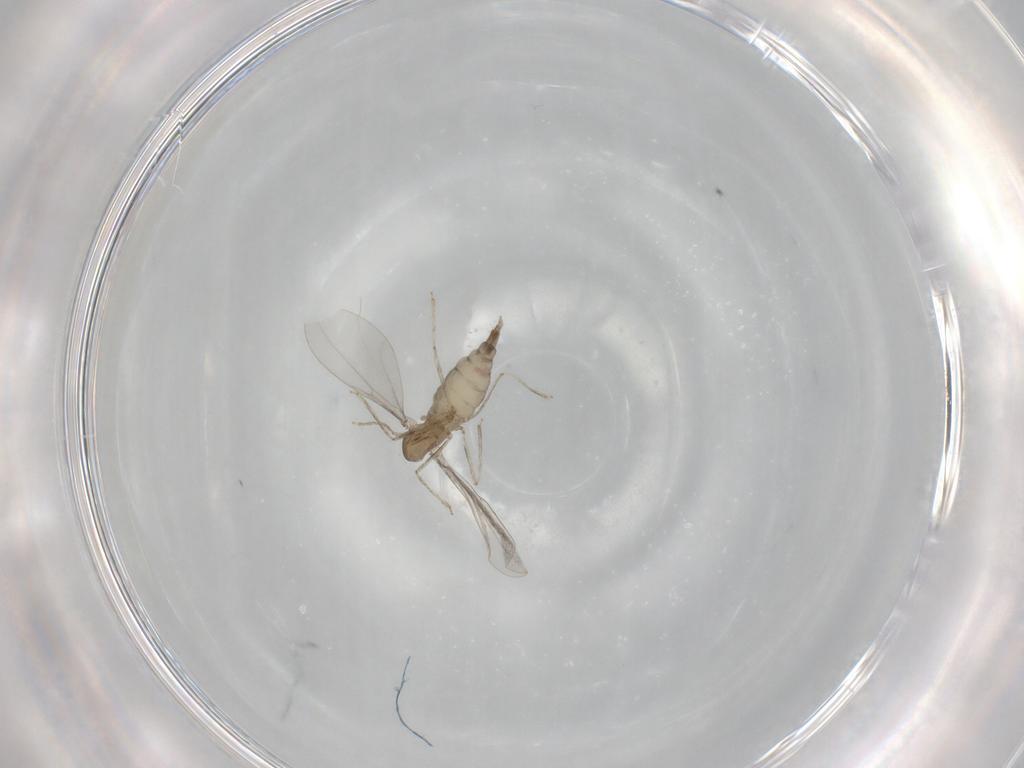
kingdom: Animalia
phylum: Arthropoda
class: Insecta
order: Diptera
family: Cecidomyiidae
